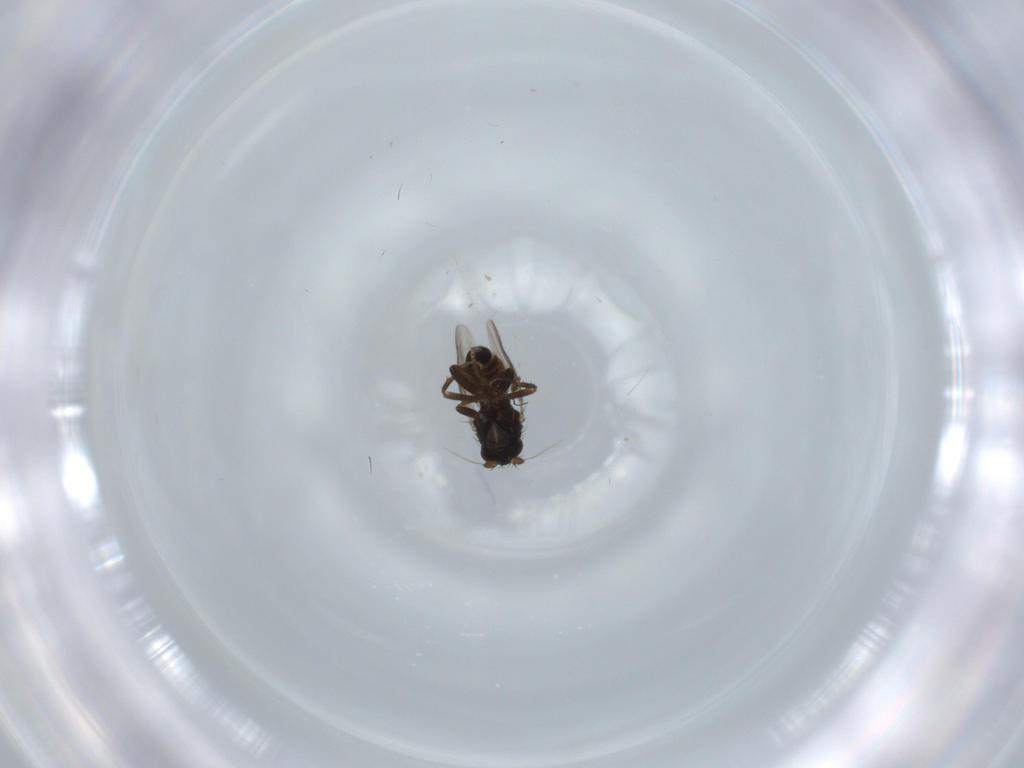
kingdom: Animalia
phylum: Arthropoda
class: Insecta
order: Diptera
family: Sphaeroceridae
